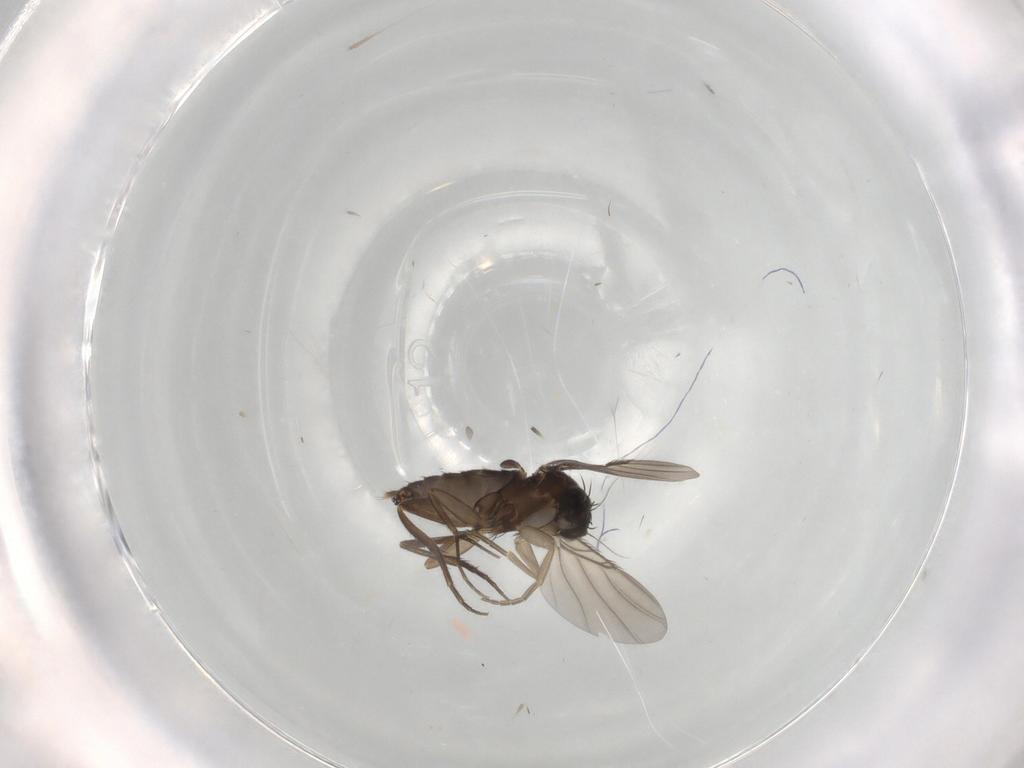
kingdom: Animalia
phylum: Arthropoda
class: Insecta
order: Diptera
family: Phoridae
